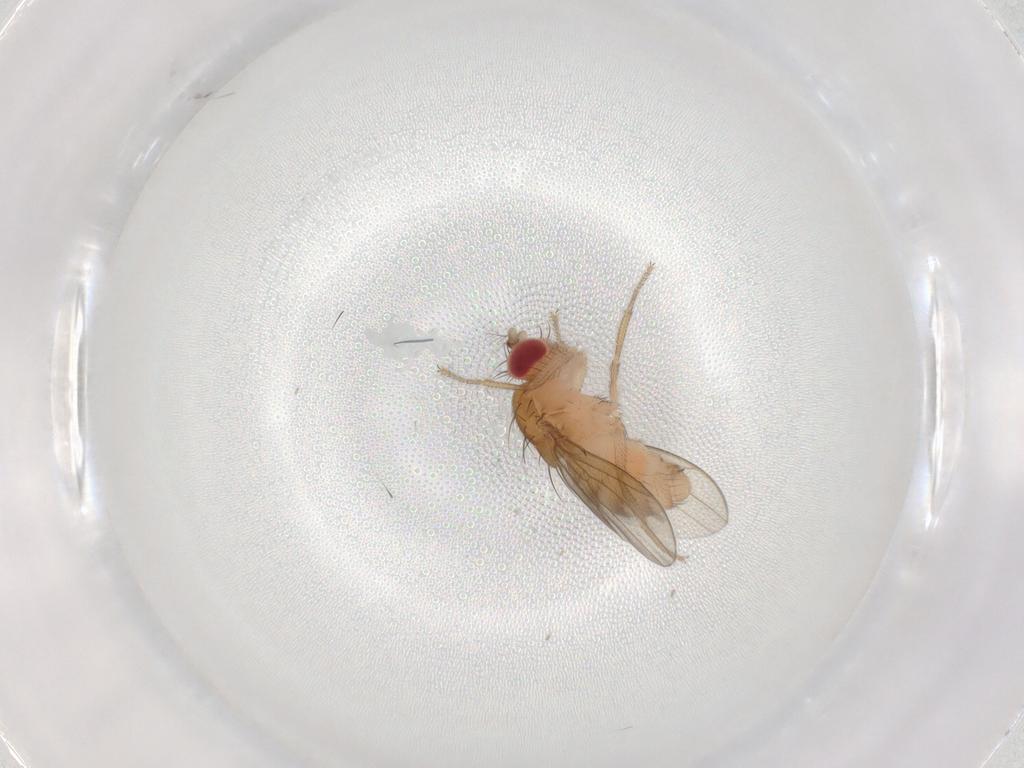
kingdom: Animalia
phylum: Arthropoda
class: Insecta
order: Diptera
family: Ceratopogonidae
